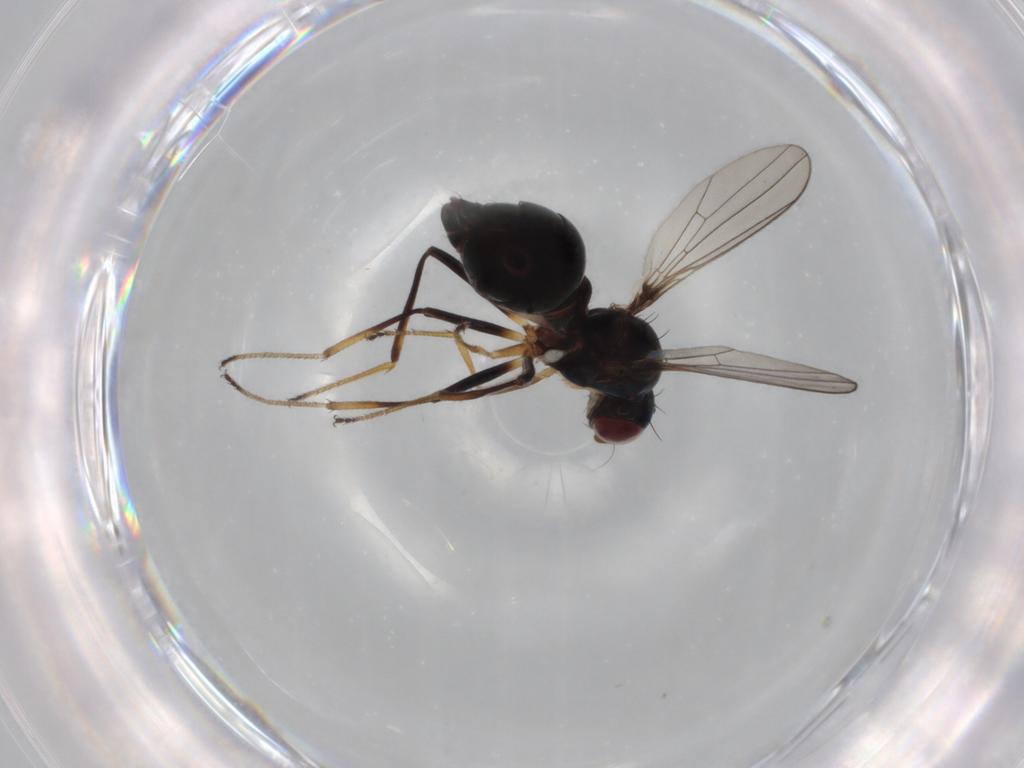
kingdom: Animalia
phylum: Arthropoda
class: Insecta
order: Diptera
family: Sepsidae
